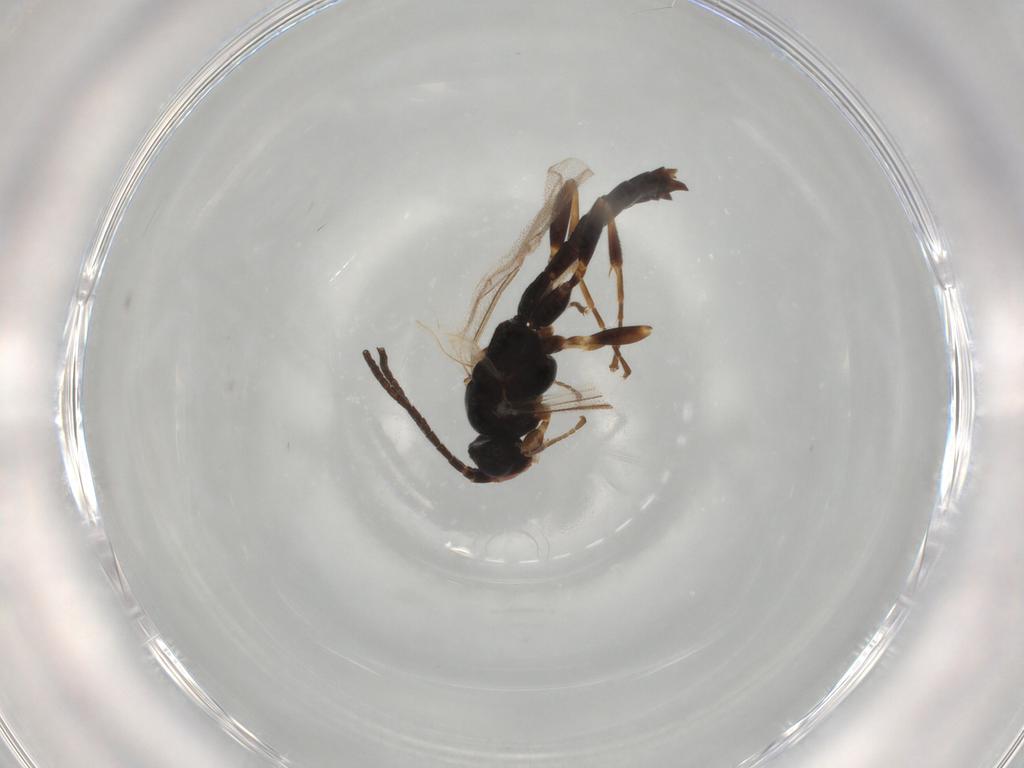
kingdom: Animalia
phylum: Arthropoda
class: Insecta
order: Hymenoptera
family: Ichneumonidae
